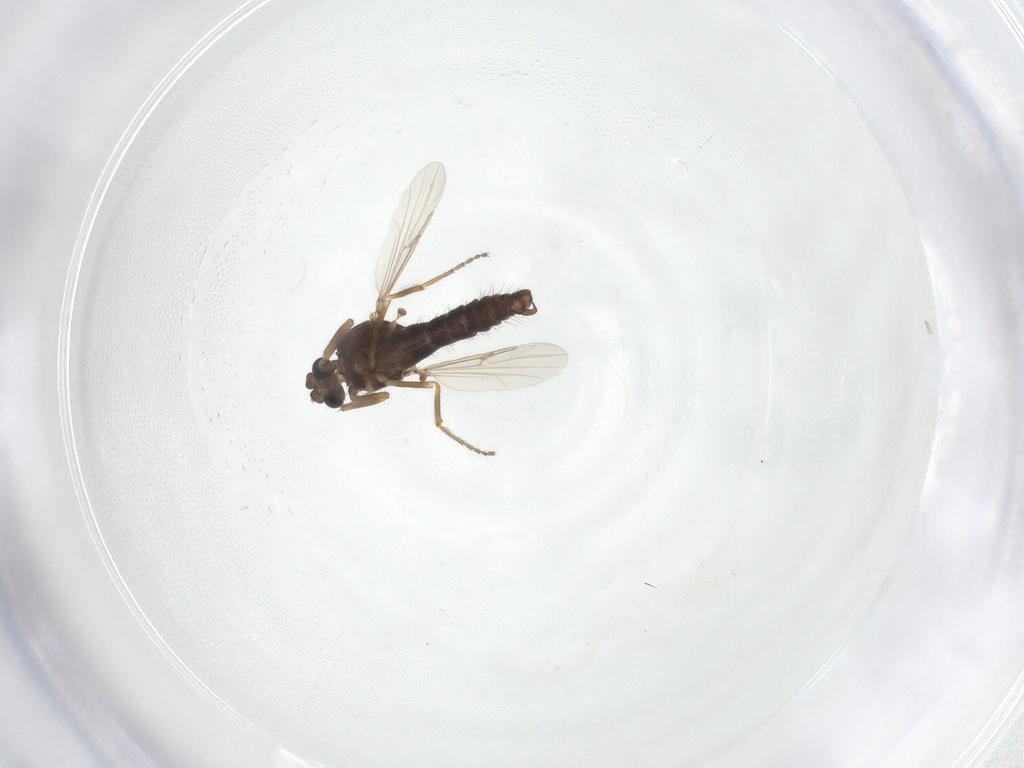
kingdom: Animalia
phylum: Arthropoda
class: Insecta
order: Diptera
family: Ceratopogonidae
